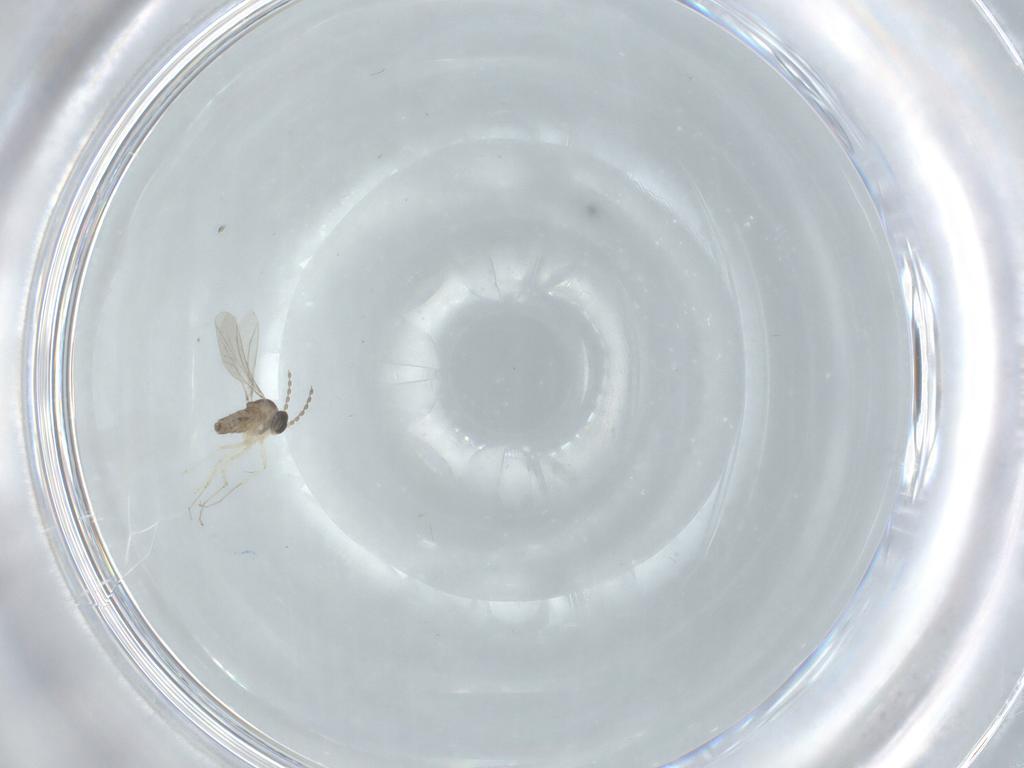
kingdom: Animalia
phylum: Arthropoda
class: Insecta
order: Diptera
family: Cecidomyiidae
